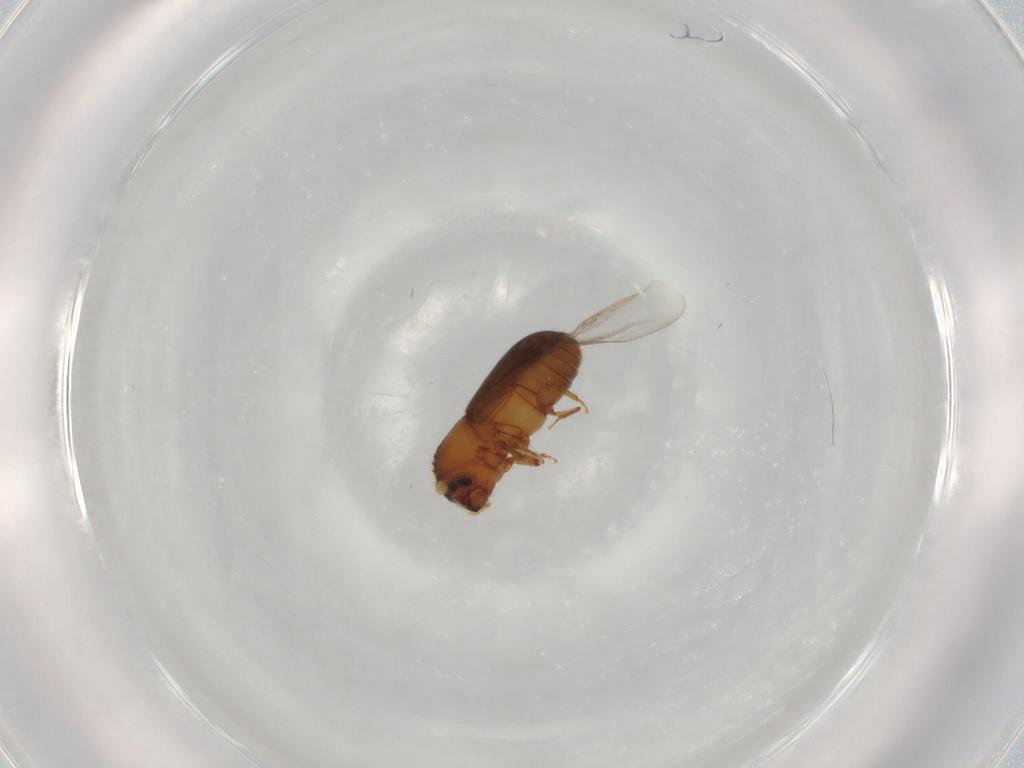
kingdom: Animalia
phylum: Arthropoda
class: Insecta
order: Coleoptera
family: Curculionidae
